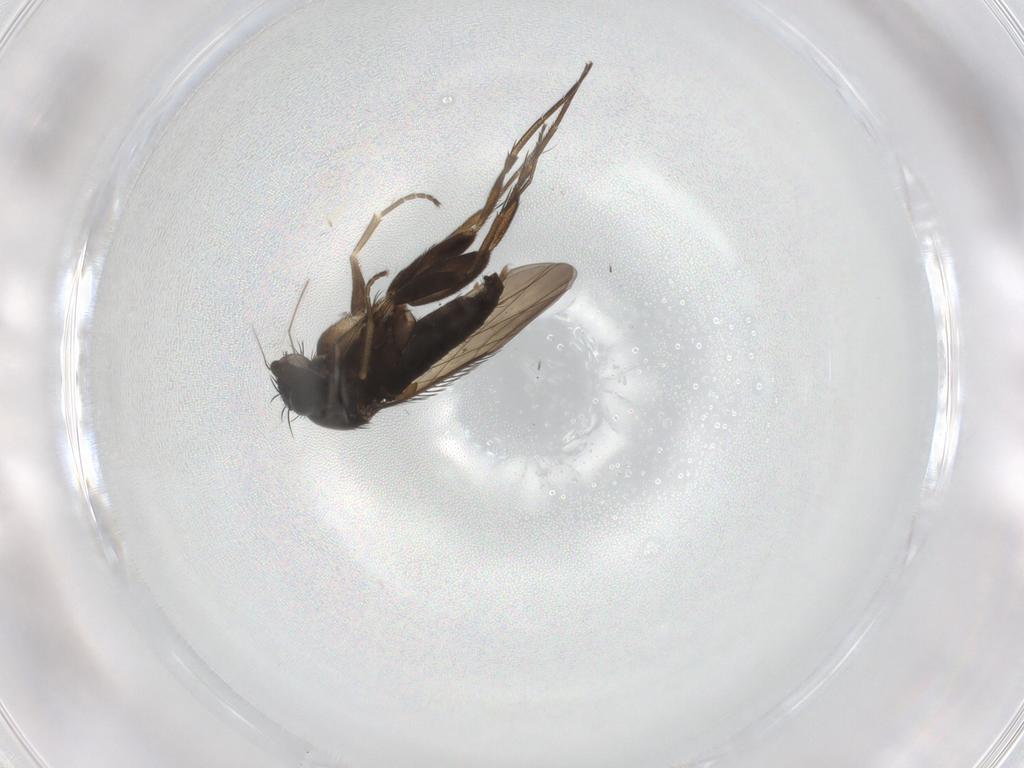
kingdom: Animalia
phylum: Arthropoda
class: Insecta
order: Diptera
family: Phoridae
